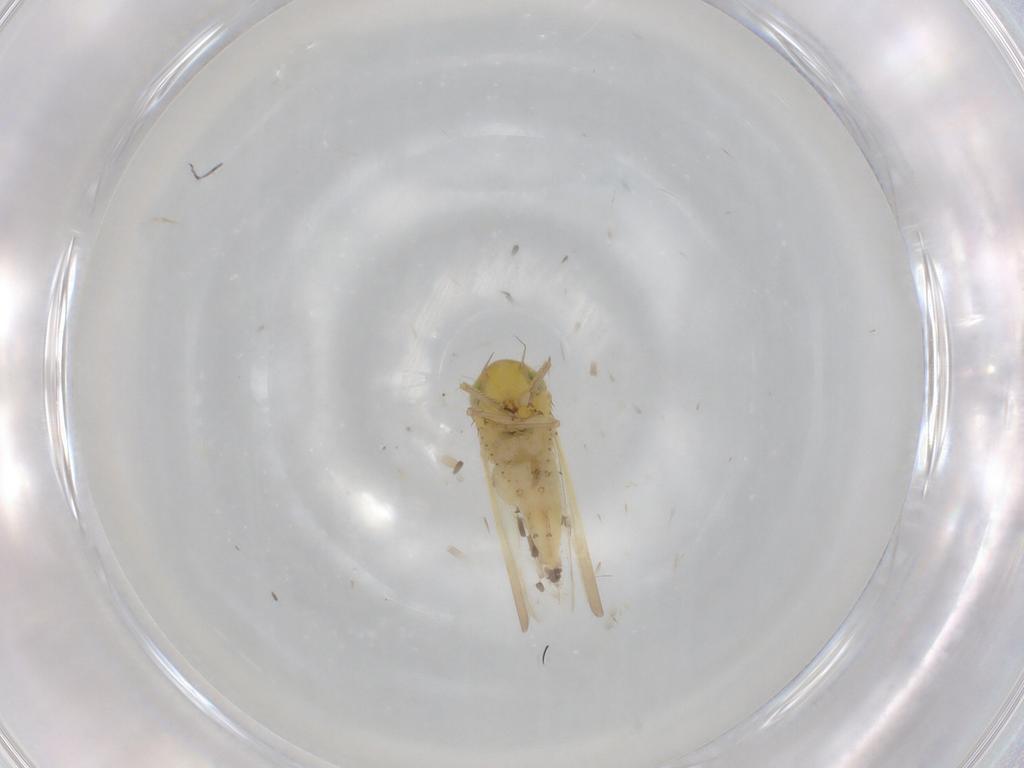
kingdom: Animalia
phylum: Arthropoda
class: Insecta
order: Hemiptera
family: Cicadellidae
